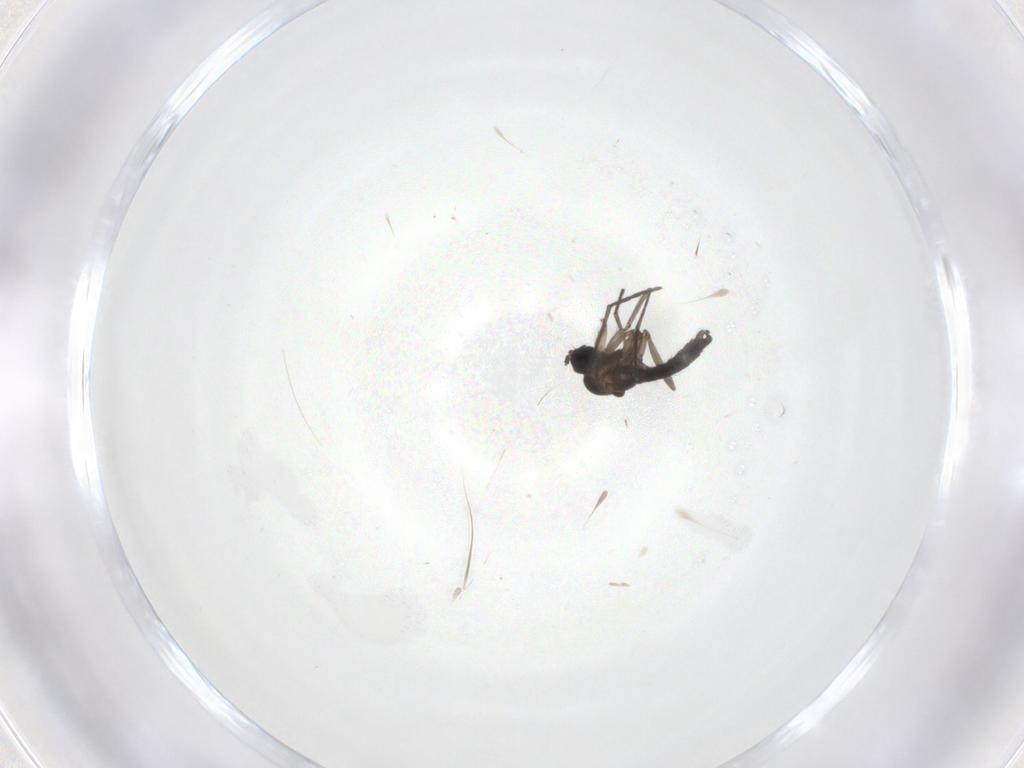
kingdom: Animalia
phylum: Arthropoda
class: Insecta
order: Diptera
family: Sciaridae
